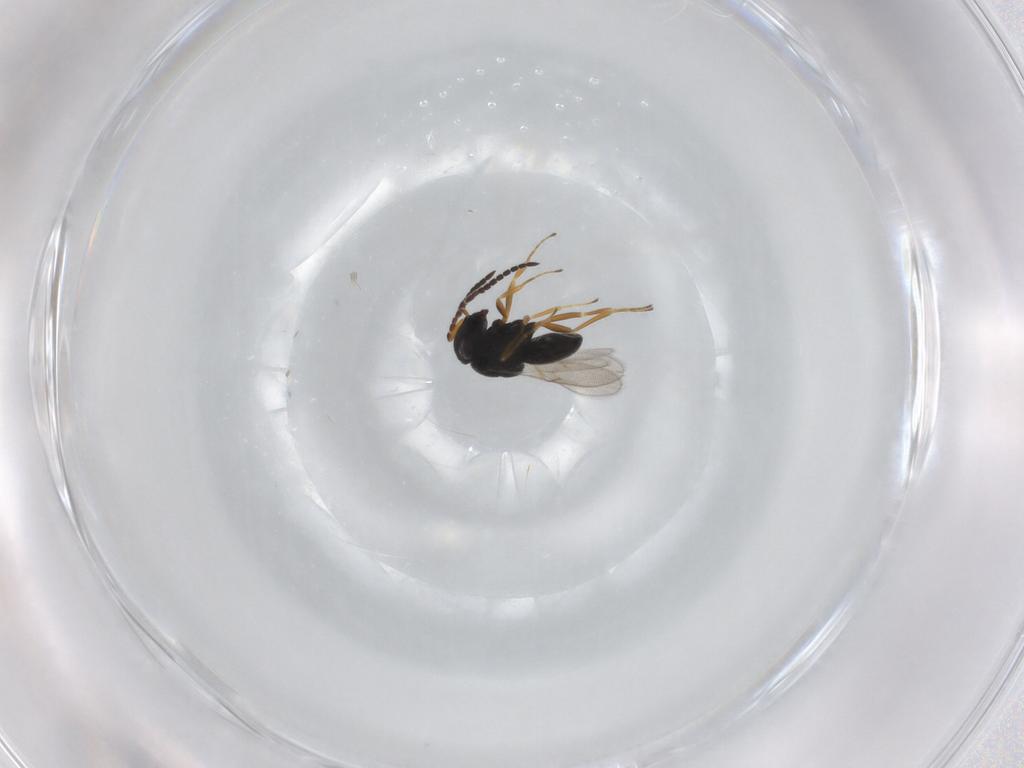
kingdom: Animalia
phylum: Arthropoda
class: Insecta
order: Hymenoptera
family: Scelionidae
